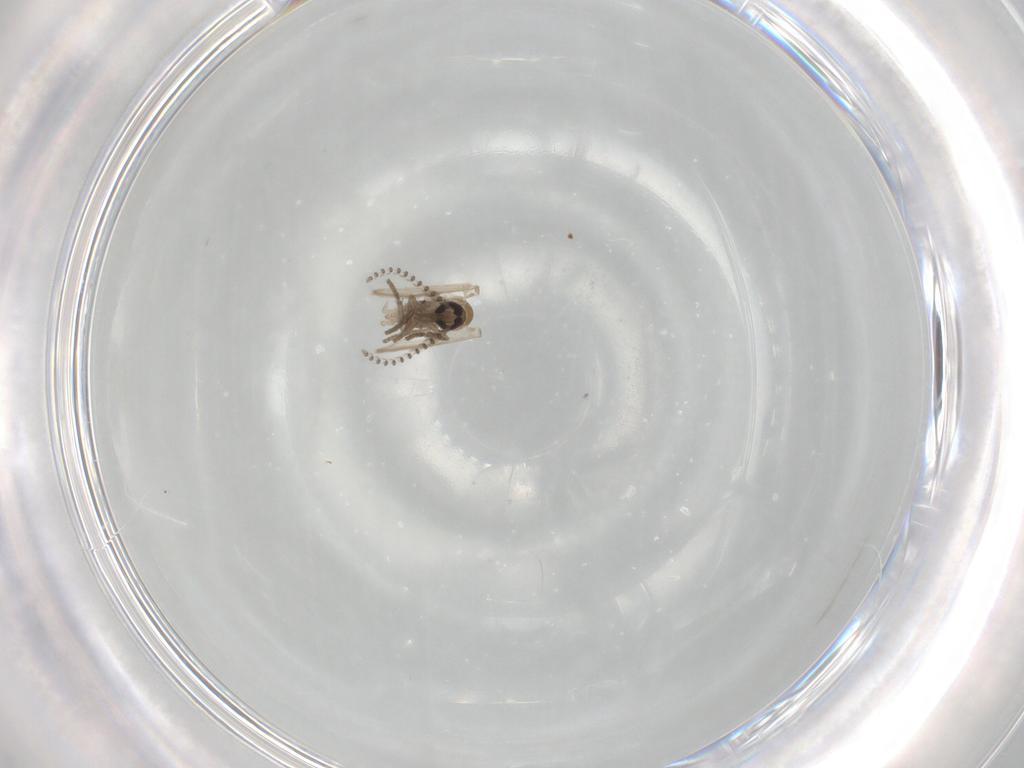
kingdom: Animalia
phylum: Arthropoda
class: Insecta
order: Diptera
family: Psychodidae
